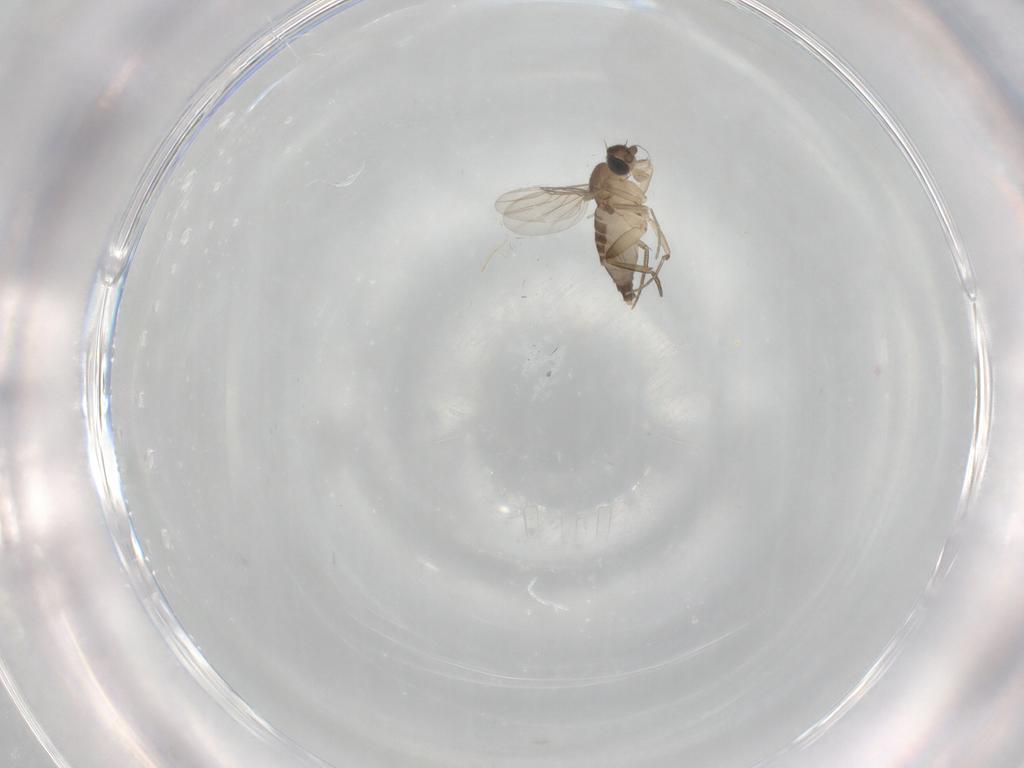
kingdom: Animalia
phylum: Arthropoda
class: Insecta
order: Diptera
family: Phoridae
